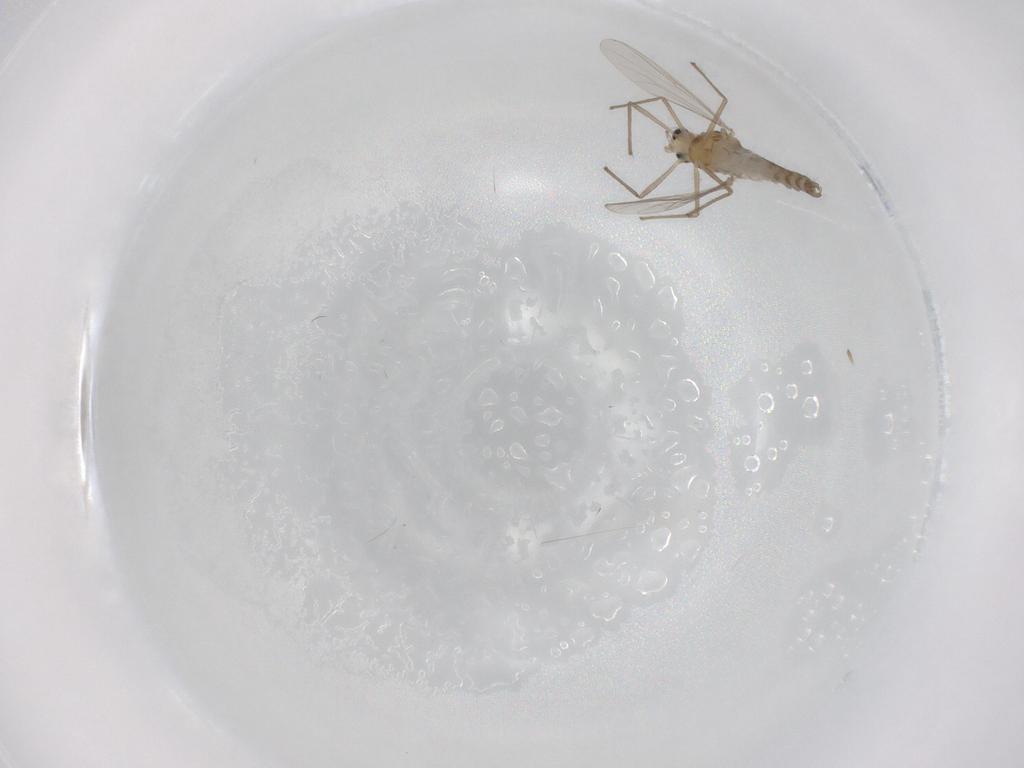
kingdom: Animalia
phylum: Arthropoda
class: Insecta
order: Diptera
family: Chironomidae
